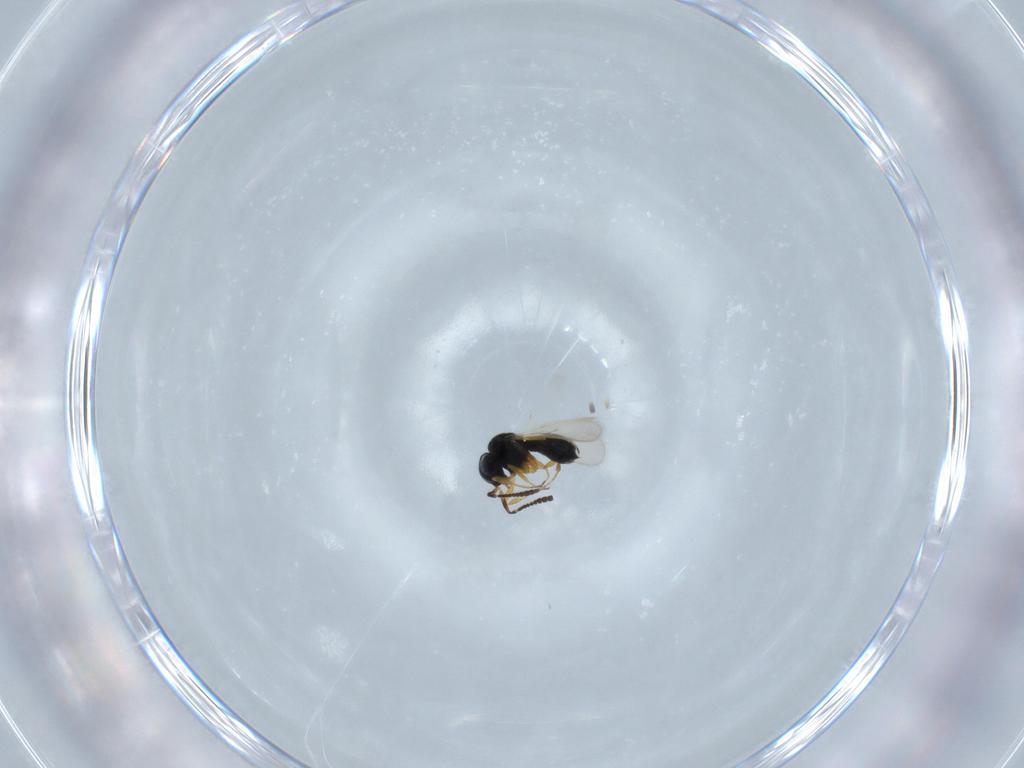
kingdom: Animalia
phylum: Arthropoda
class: Insecta
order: Hymenoptera
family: Scelionidae
